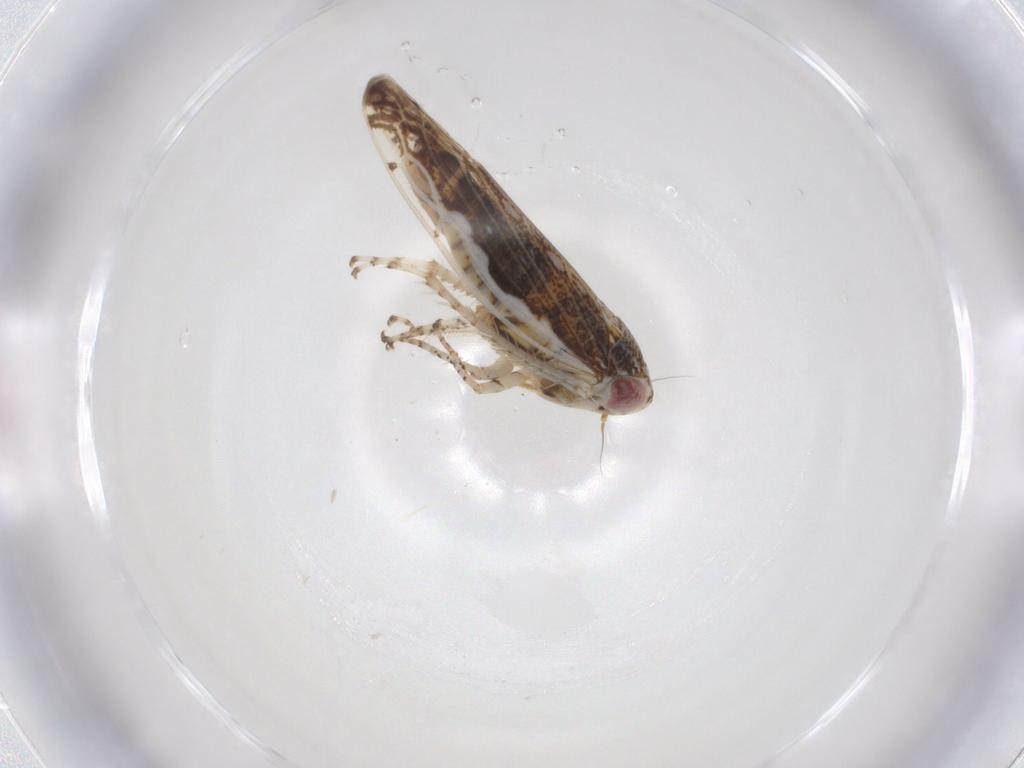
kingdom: Animalia
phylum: Arthropoda
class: Insecta
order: Hemiptera
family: Cicadellidae
